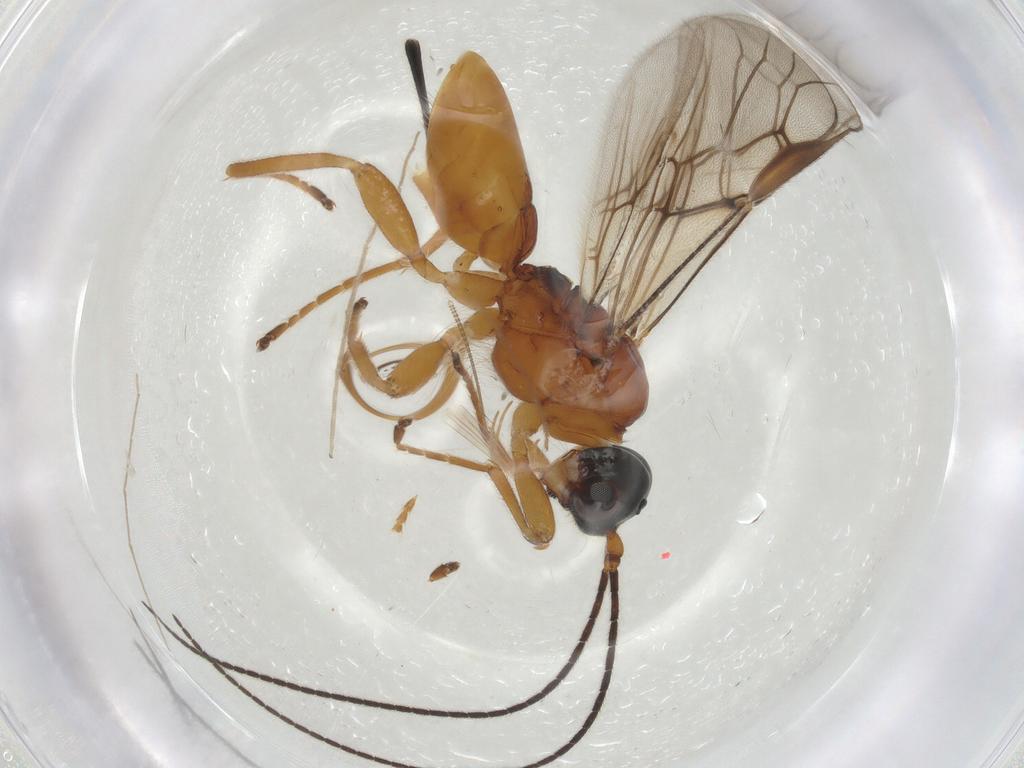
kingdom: Animalia
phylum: Arthropoda
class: Insecta
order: Hymenoptera
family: Braconidae
